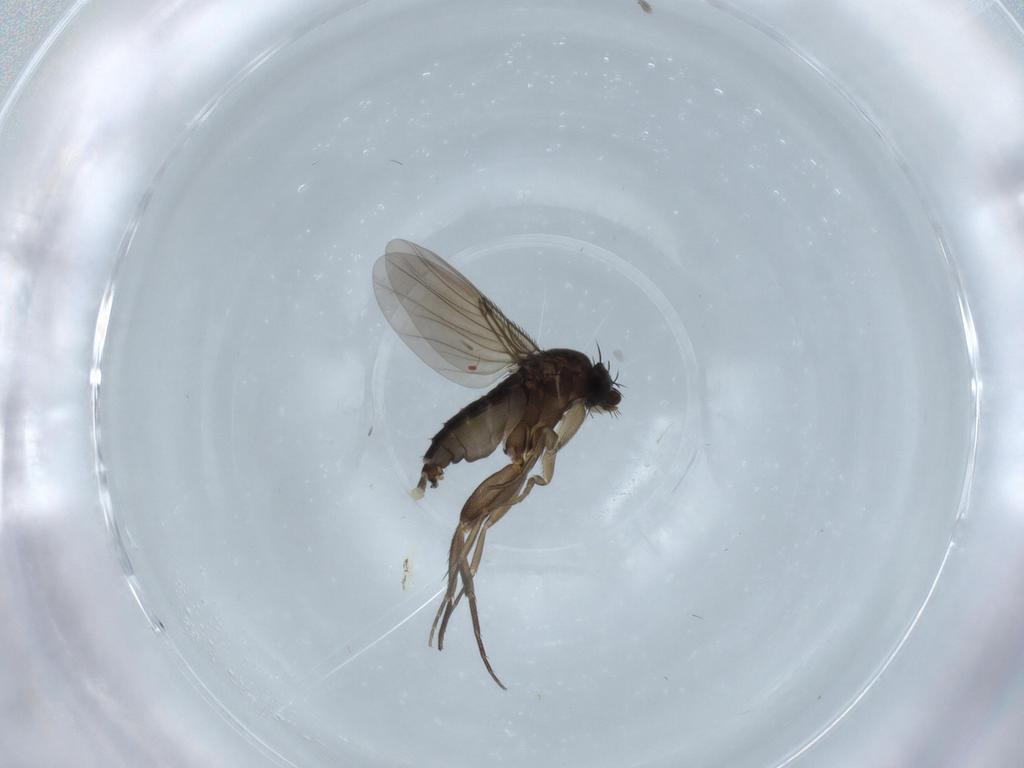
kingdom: Animalia
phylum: Arthropoda
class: Insecta
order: Diptera
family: Phoridae
